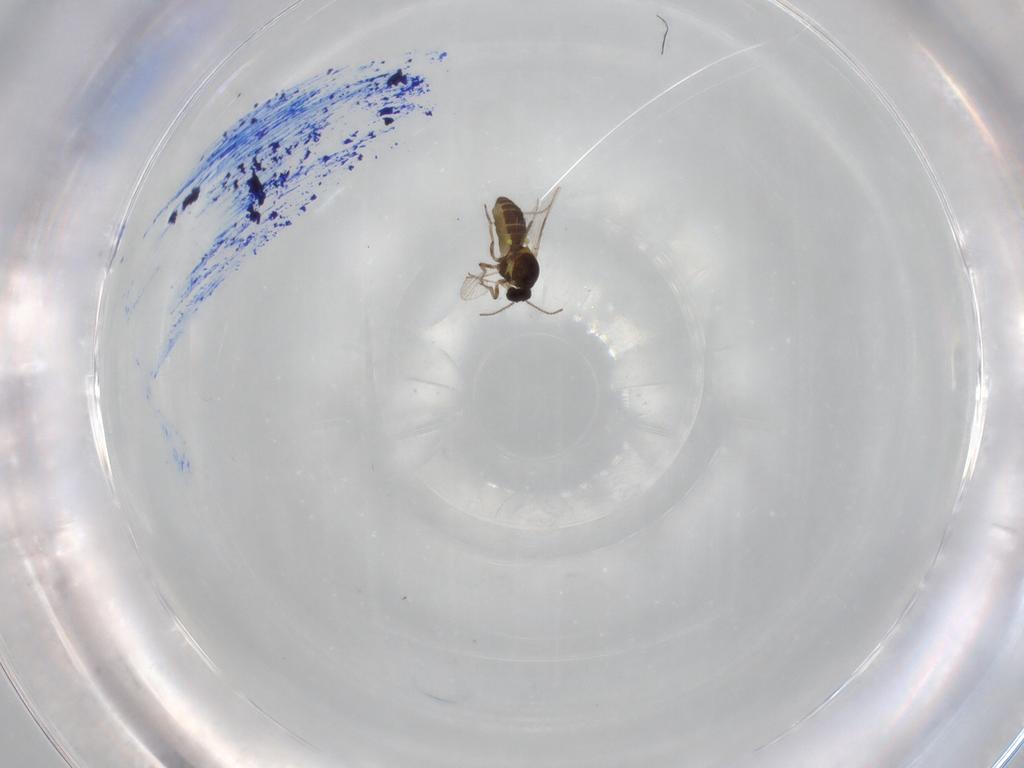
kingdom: Animalia
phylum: Arthropoda
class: Insecta
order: Diptera
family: Ceratopogonidae
